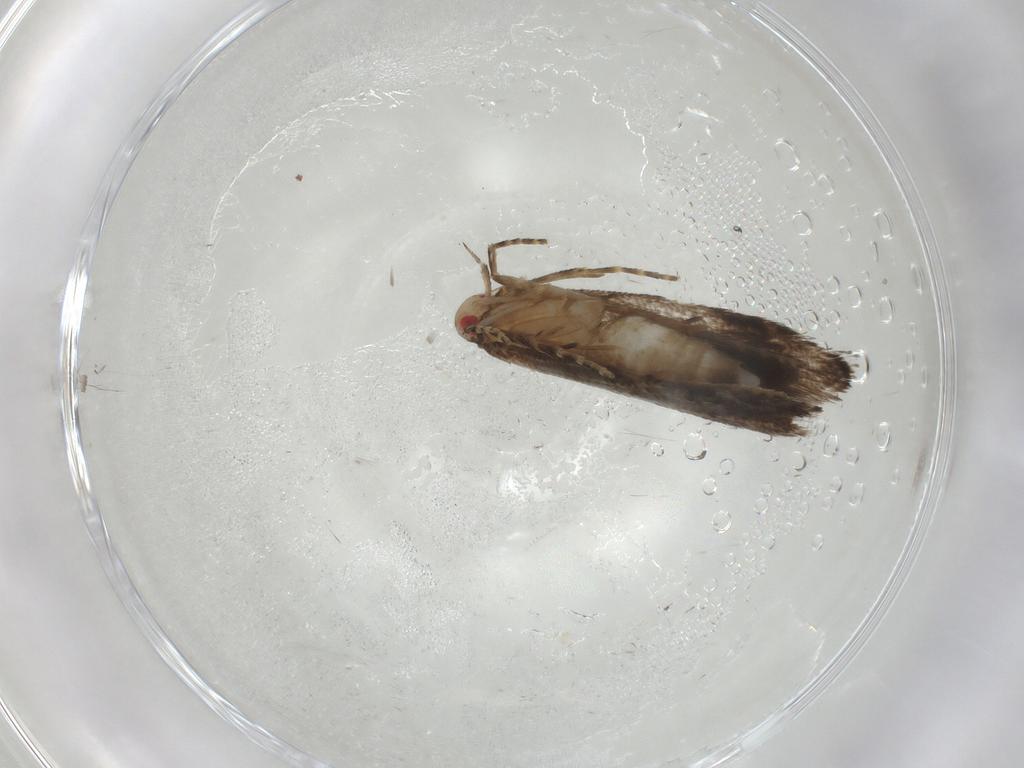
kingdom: Animalia
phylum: Arthropoda
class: Insecta
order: Lepidoptera
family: Gelechiidae
